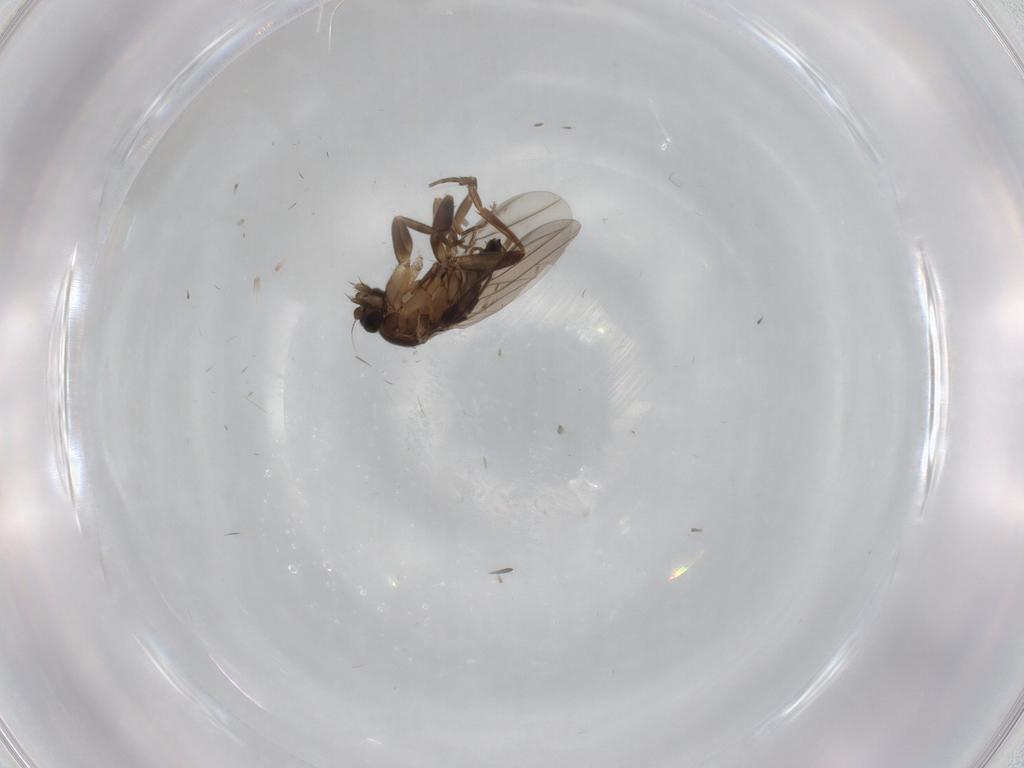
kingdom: Animalia
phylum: Arthropoda
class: Insecta
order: Diptera
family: Phoridae
